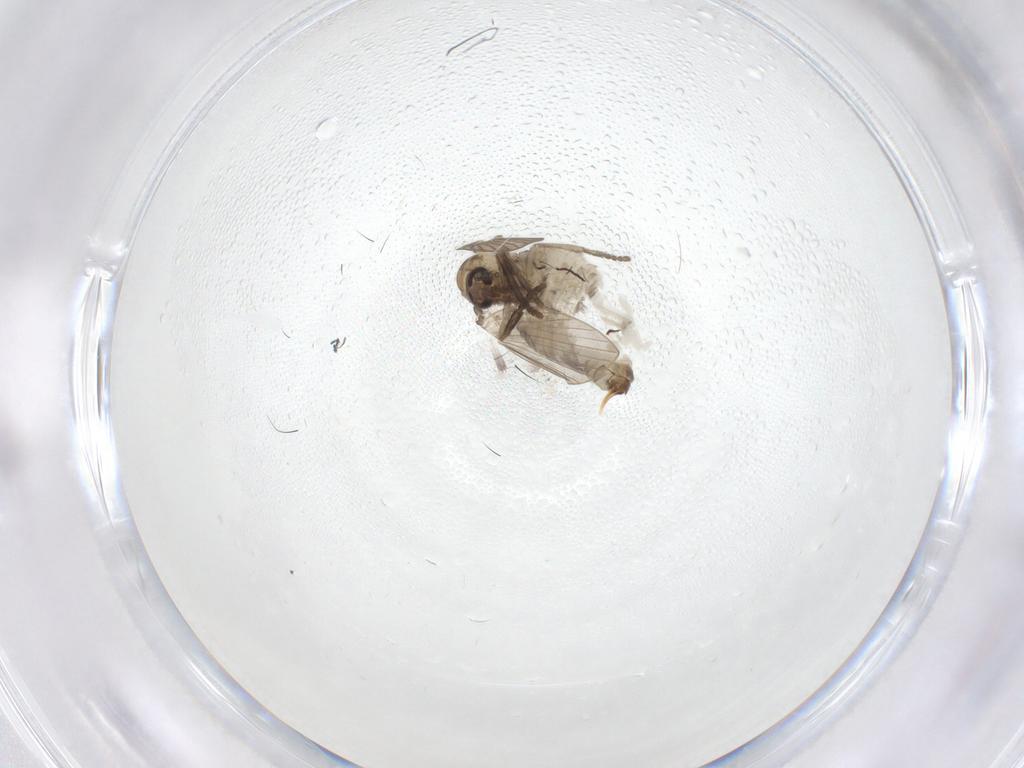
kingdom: Animalia
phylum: Arthropoda
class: Insecta
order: Diptera
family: Psychodidae
